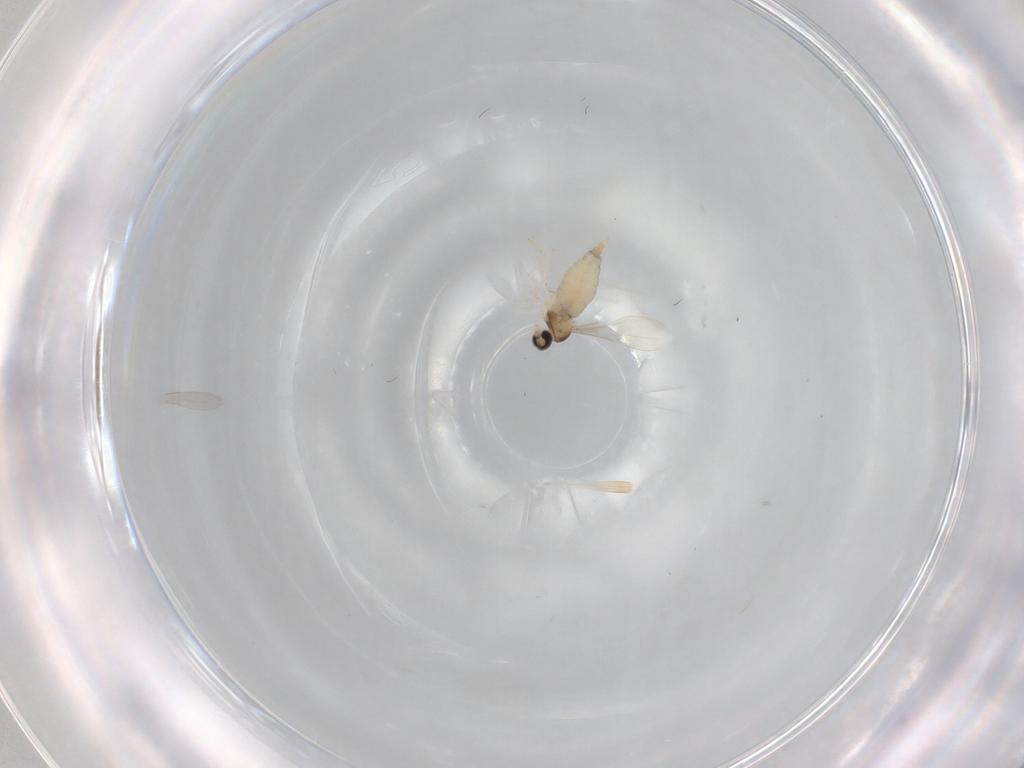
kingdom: Animalia
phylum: Arthropoda
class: Insecta
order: Diptera
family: Cecidomyiidae
